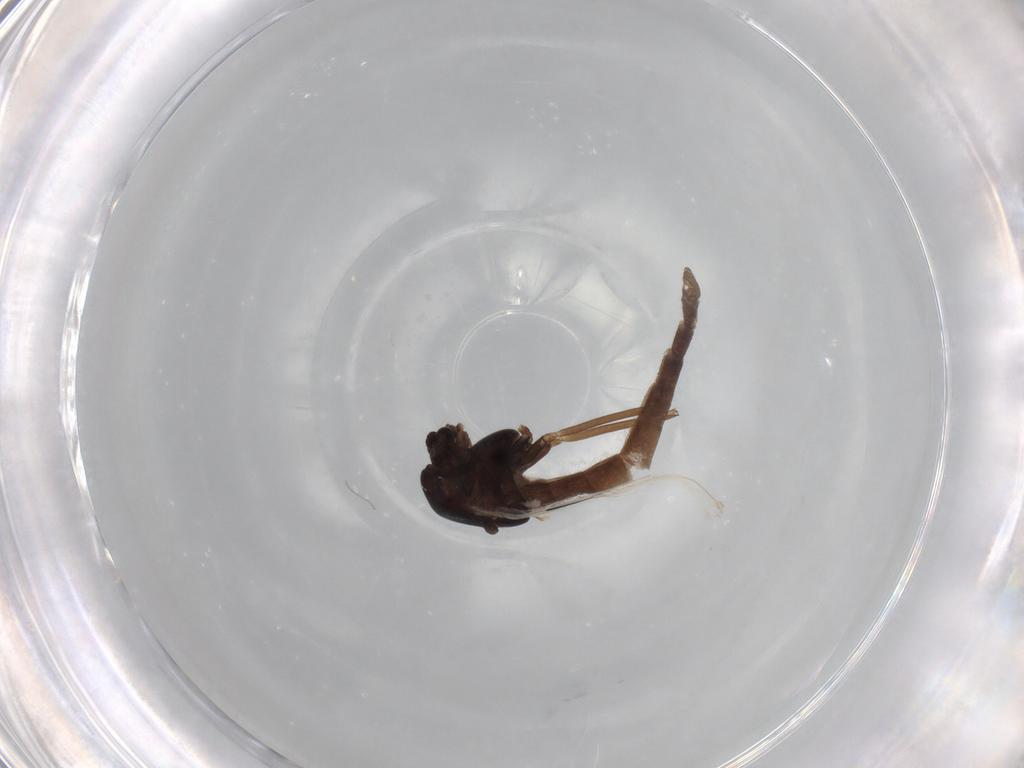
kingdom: Animalia
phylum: Arthropoda
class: Insecta
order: Diptera
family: Chironomidae
